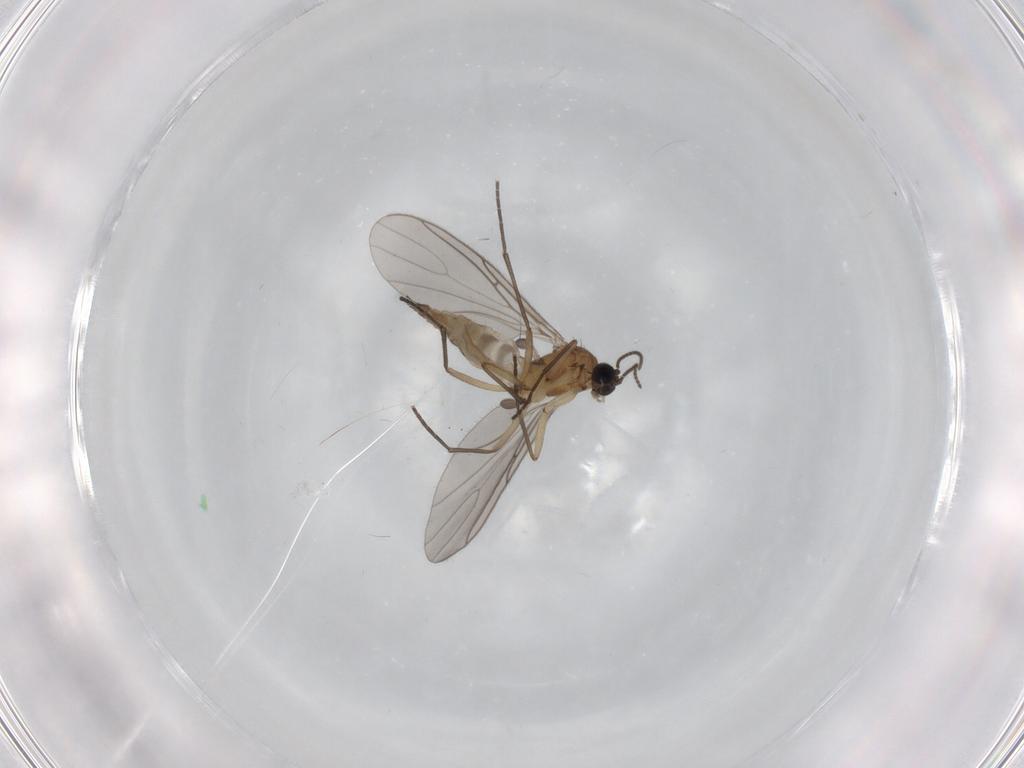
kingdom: Animalia
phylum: Arthropoda
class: Insecta
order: Diptera
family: Sciaridae
